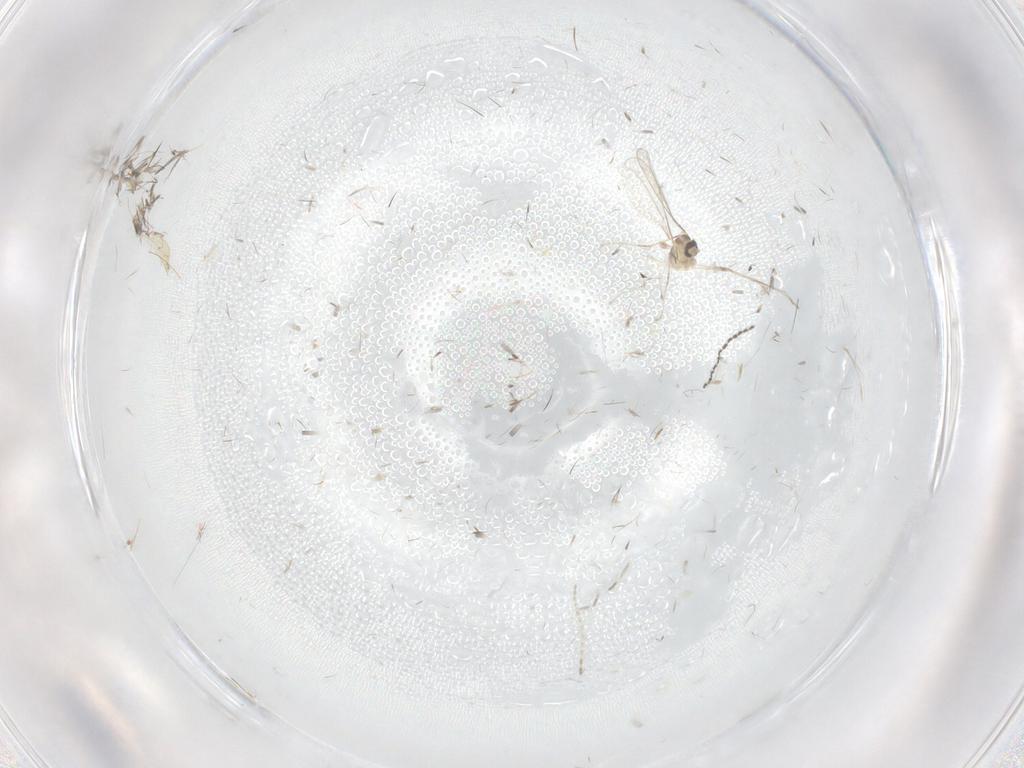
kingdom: Animalia
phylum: Arthropoda
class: Insecta
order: Diptera
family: Cecidomyiidae
